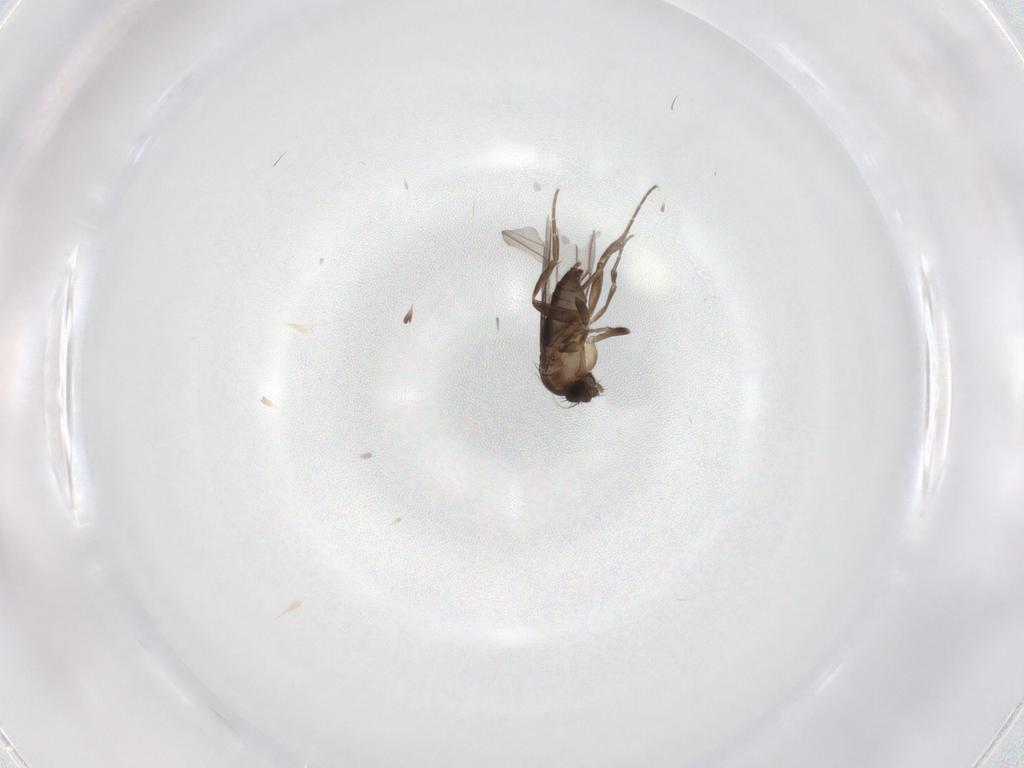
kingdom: Animalia
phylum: Arthropoda
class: Insecta
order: Diptera
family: Phoridae
